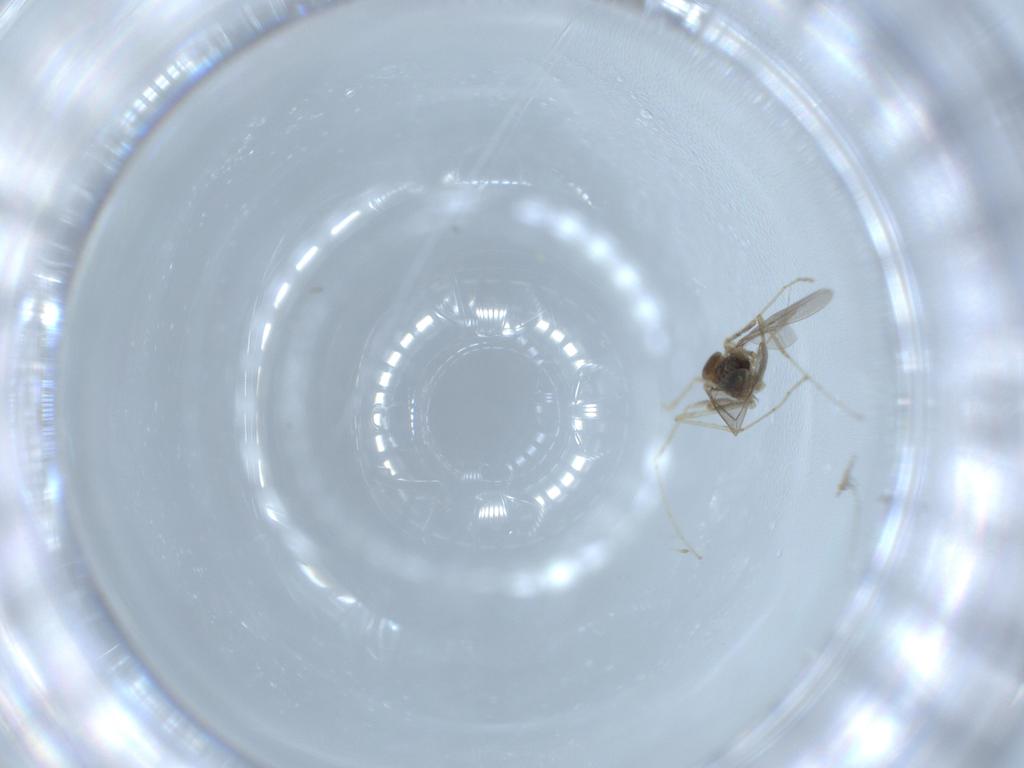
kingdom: Animalia
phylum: Arthropoda
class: Insecta
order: Diptera
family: Cecidomyiidae
